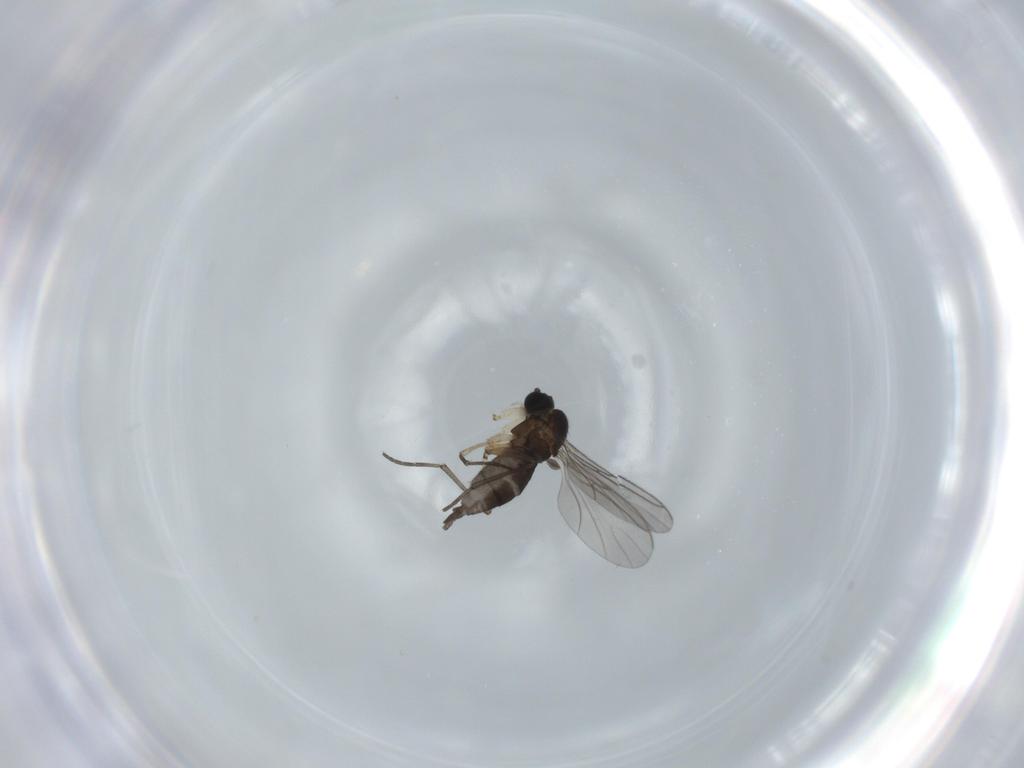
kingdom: Animalia
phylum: Arthropoda
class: Insecta
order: Diptera
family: Sciaridae
